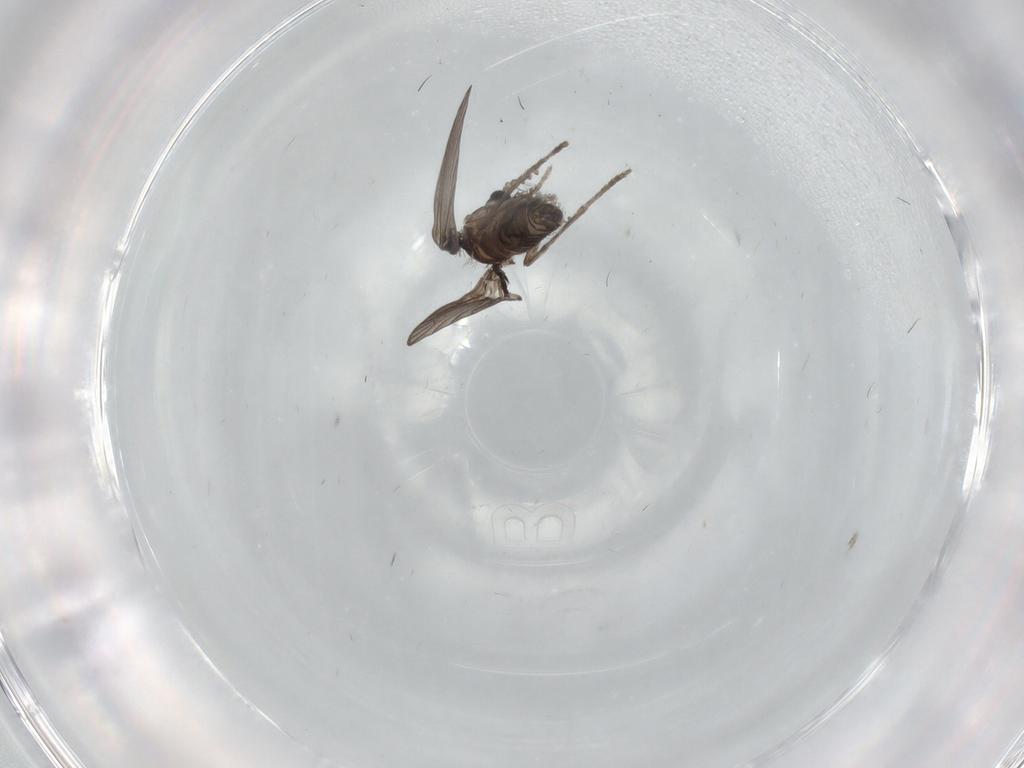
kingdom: Animalia
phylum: Arthropoda
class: Insecta
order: Diptera
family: Psychodidae
